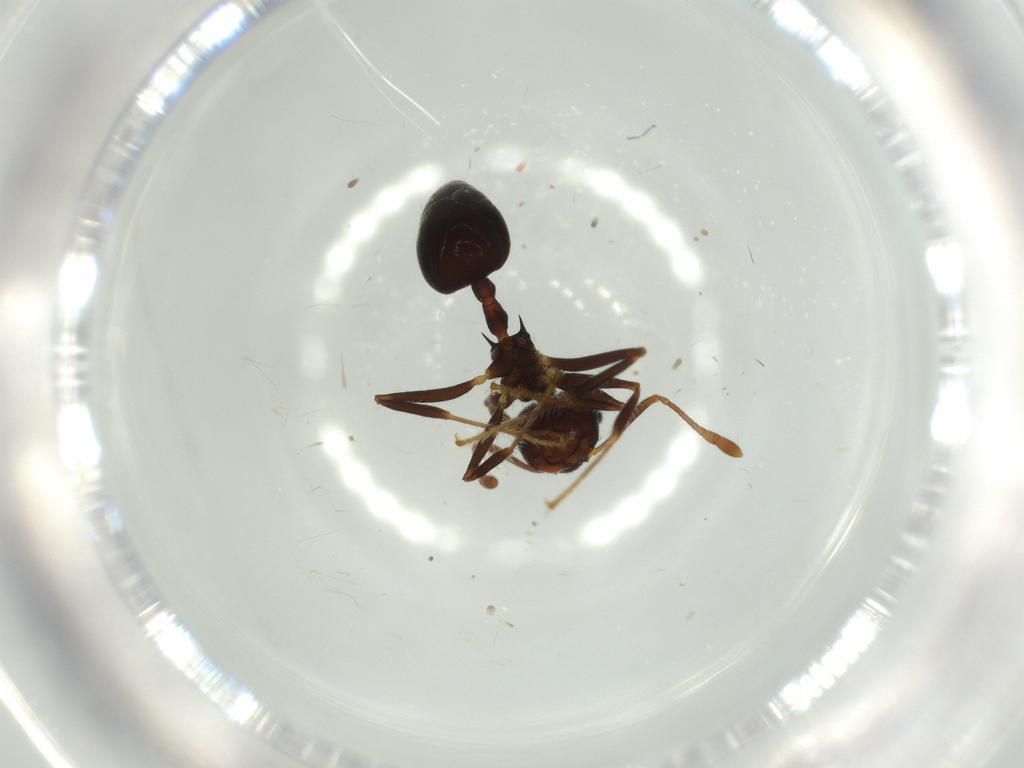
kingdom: Animalia
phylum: Arthropoda
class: Insecta
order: Hymenoptera
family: Formicidae
